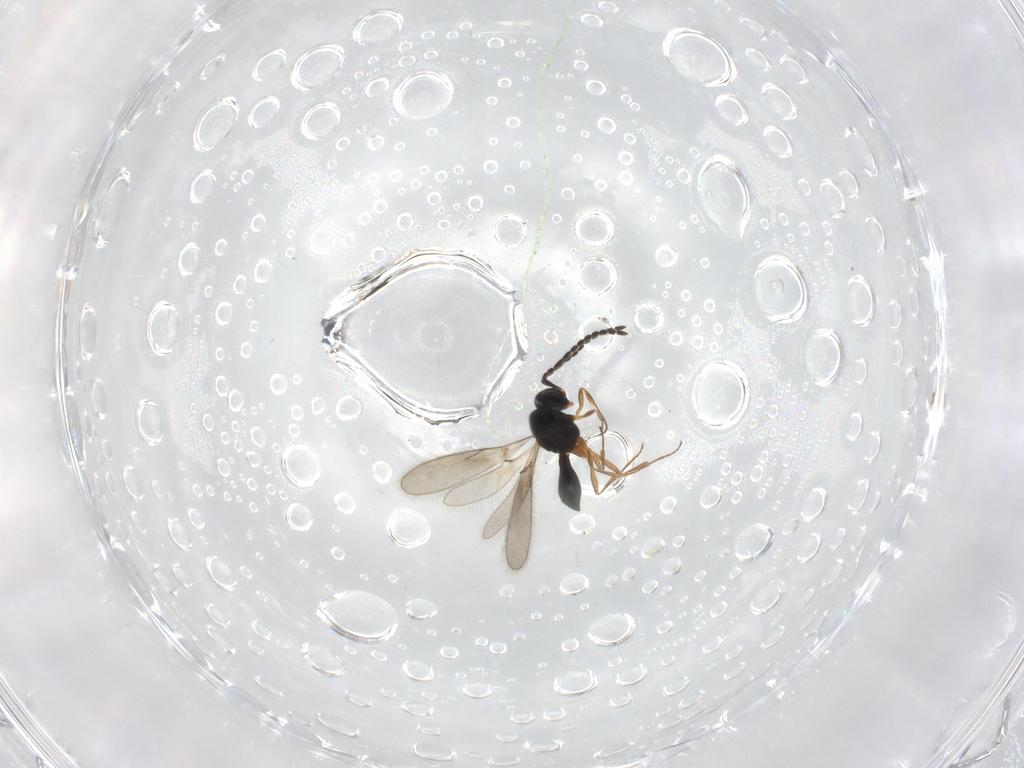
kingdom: Animalia
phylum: Arthropoda
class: Insecta
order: Hymenoptera
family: Scelionidae
